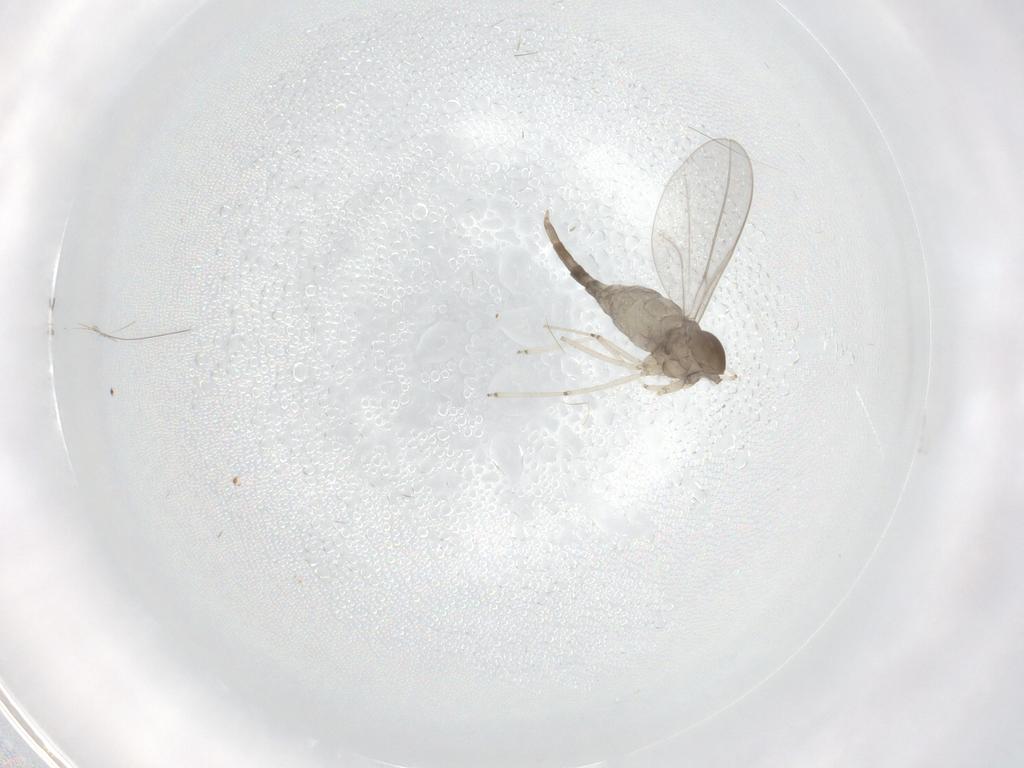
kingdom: Animalia
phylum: Arthropoda
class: Insecta
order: Diptera
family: Cecidomyiidae
